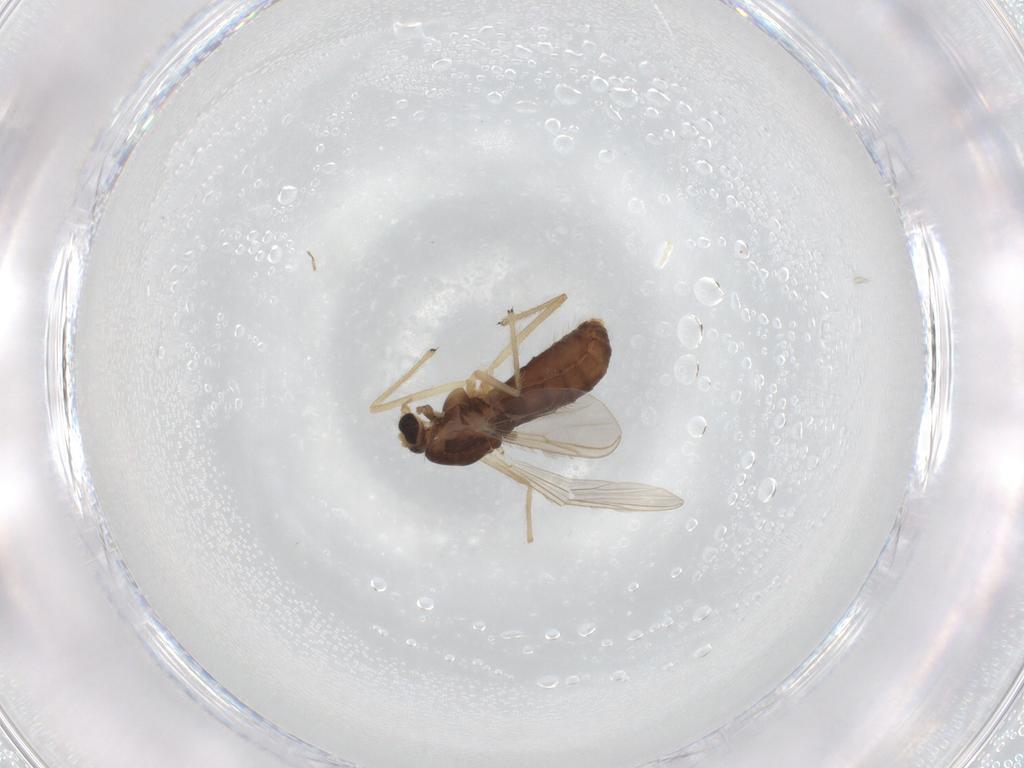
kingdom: Animalia
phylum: Arthropoda
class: Insecta
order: Diptera
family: Chironomidae
